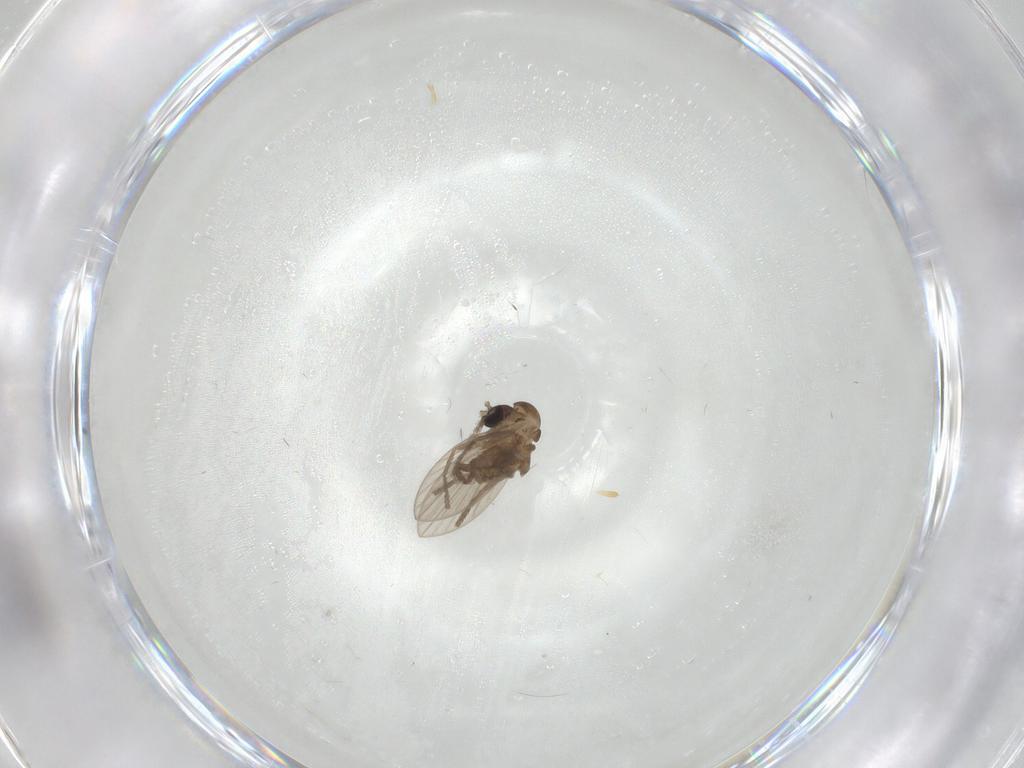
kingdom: Animalia
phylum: Arthropoda
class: Insecta
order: Diptera
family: Psychodidae
